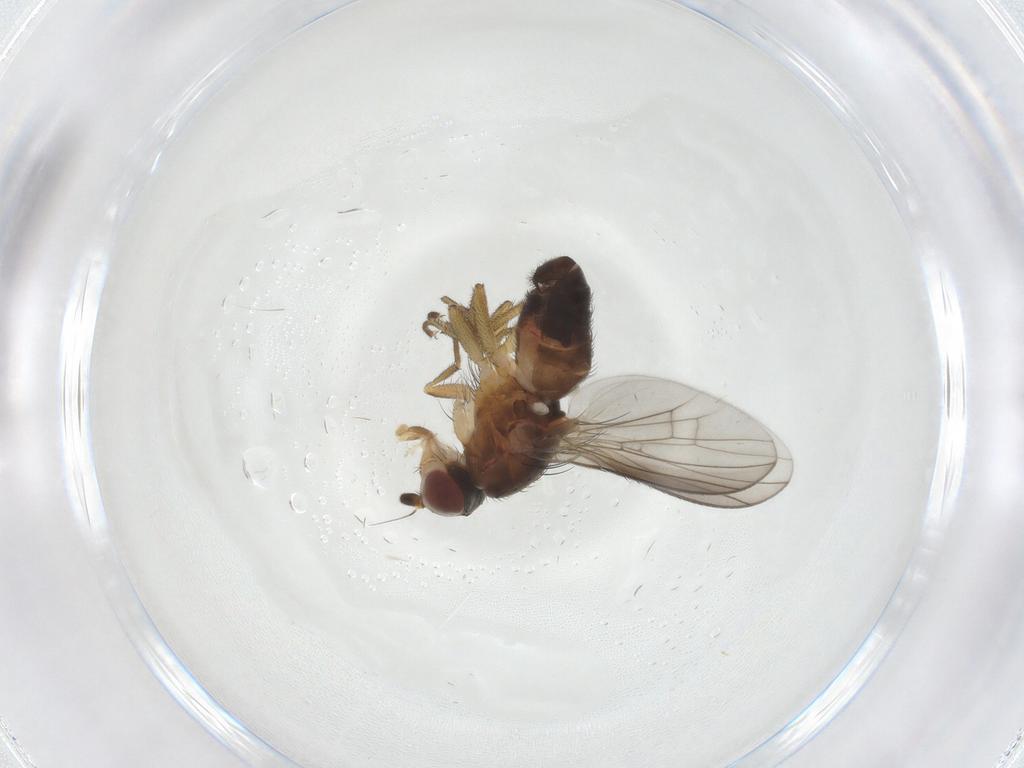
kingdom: Animalia
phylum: Arthropoda
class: Insecta
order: Diptera
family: Heleomyzidae
